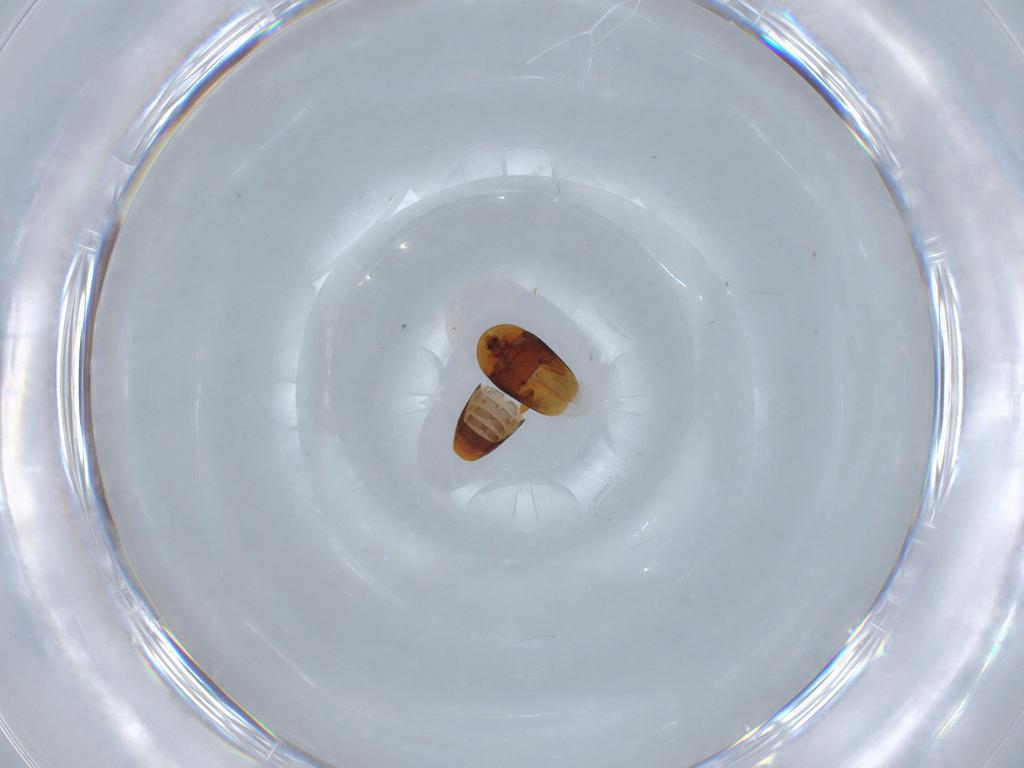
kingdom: Animalia
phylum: Arthropoda
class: Insecta
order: Coleoptera
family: Corylophidae
